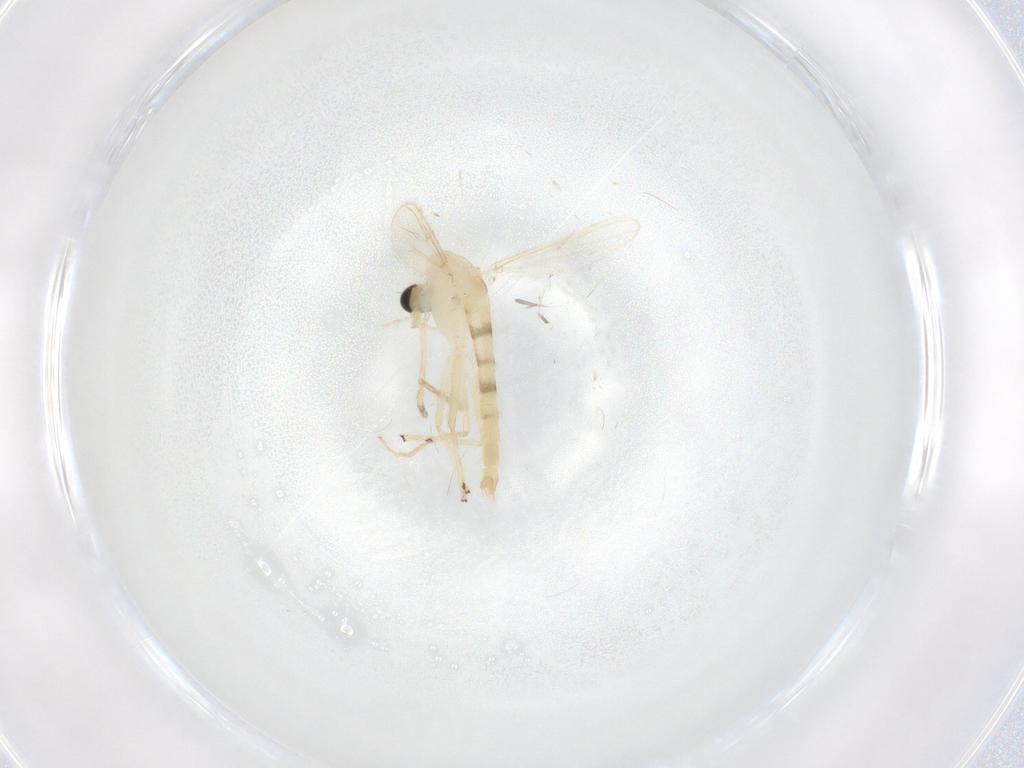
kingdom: Animalia
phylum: Arthropoda
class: Insecta
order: Diptera
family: Chironomidae
